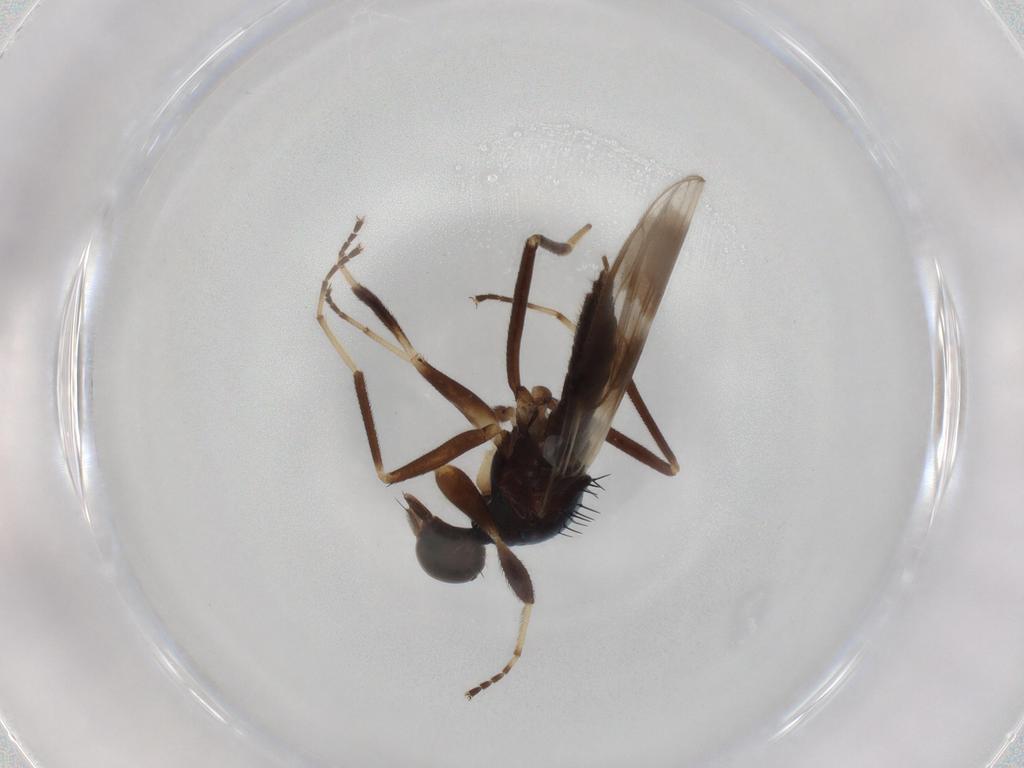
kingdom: Animalia
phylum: Arthropoda
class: Insecta
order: Diptera
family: Hybotidae
